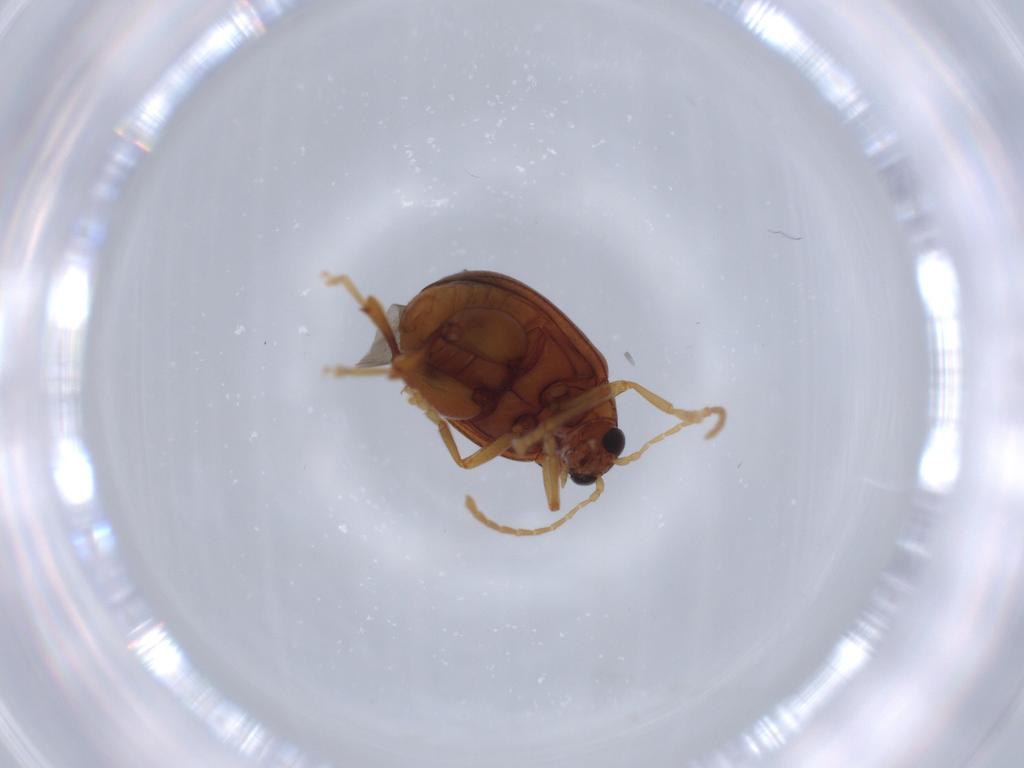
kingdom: Animalia
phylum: Arthropoda
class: Insecta
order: Coleoptera
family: Chrysomelidae
